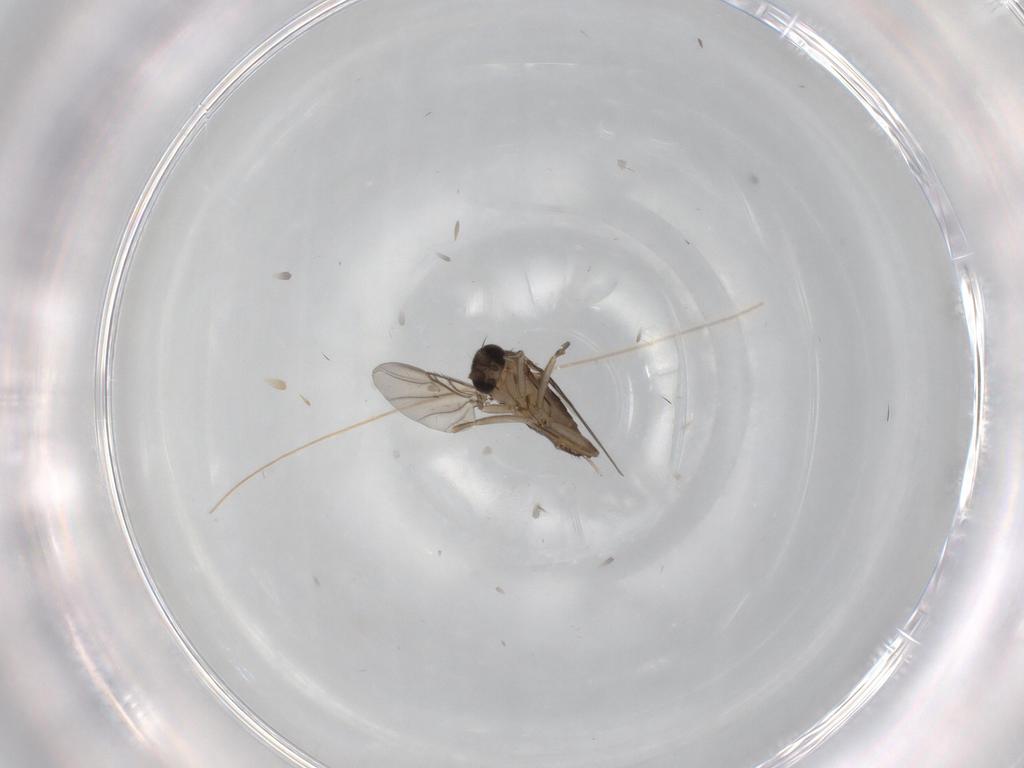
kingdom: Animalia
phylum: Arthropoda
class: Insecta
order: Diptera
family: Phoridae
